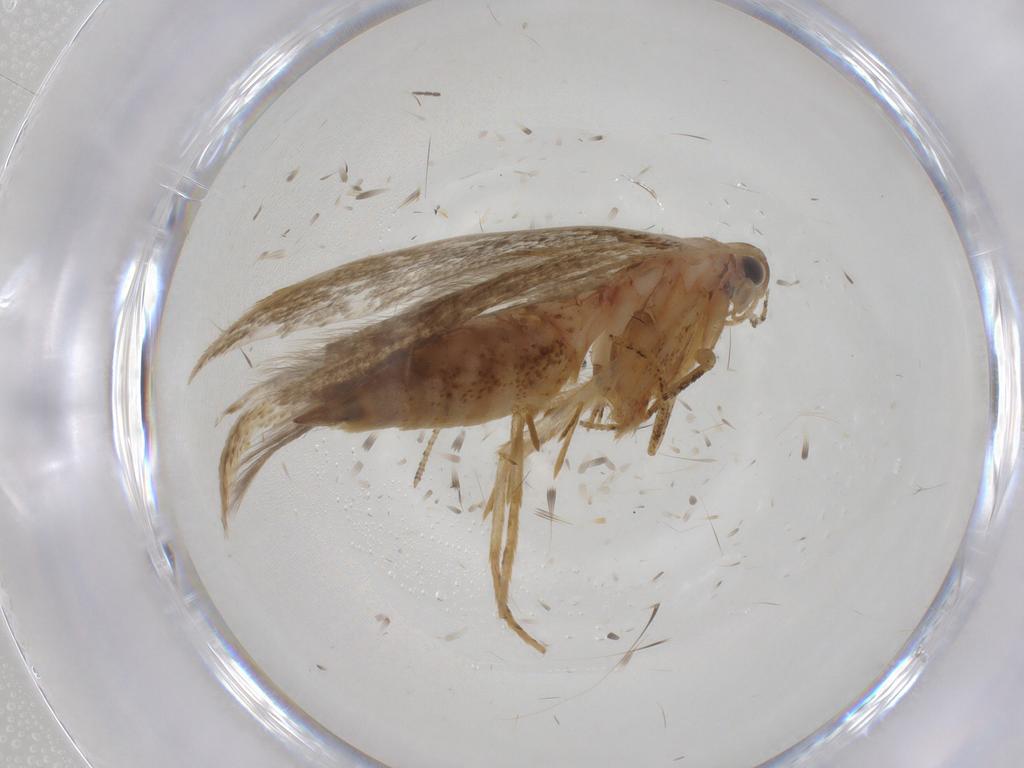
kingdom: Animalia
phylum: Arthropoda
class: Insecta
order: Lepidoptera
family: Crambidae
